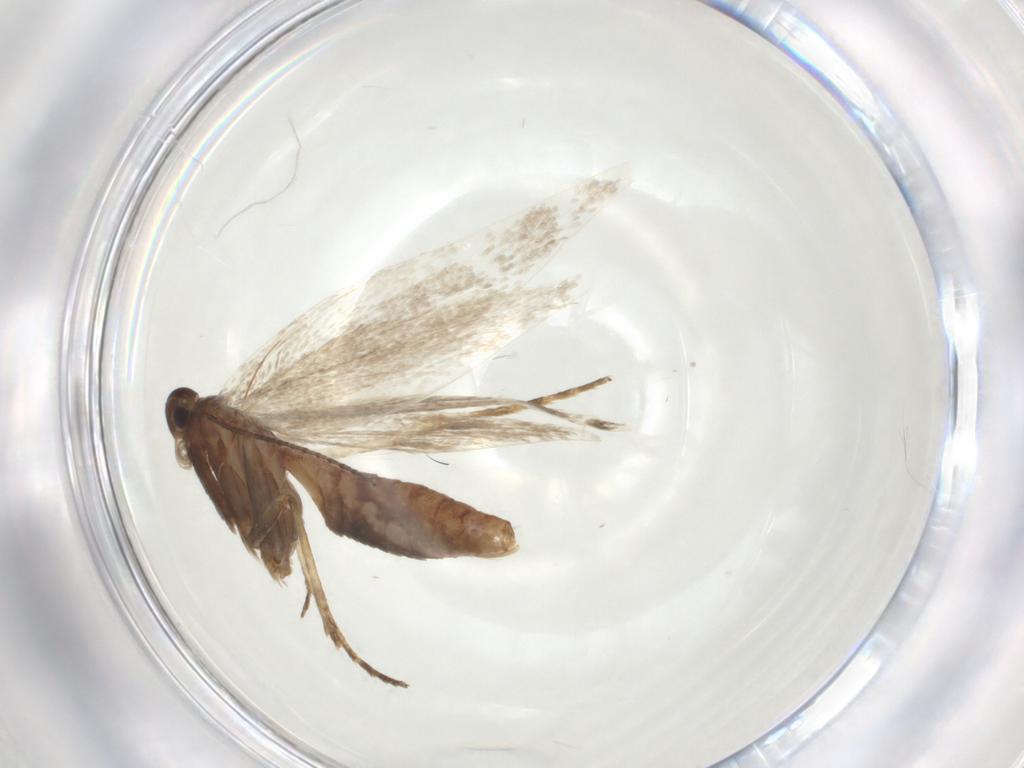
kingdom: Animalia
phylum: Arthropoda
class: Insecta
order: Lepidoptera
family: Erebidae
